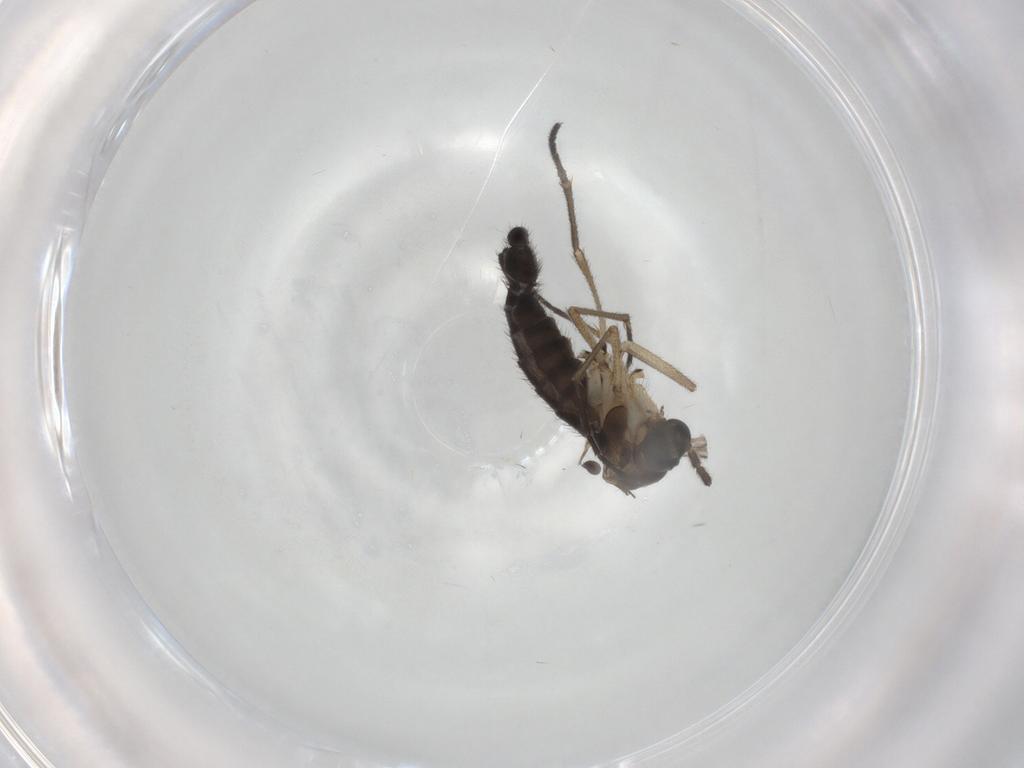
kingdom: Animalia
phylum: Arthropoda
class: Insecta
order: Diptera
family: Sciaridae
